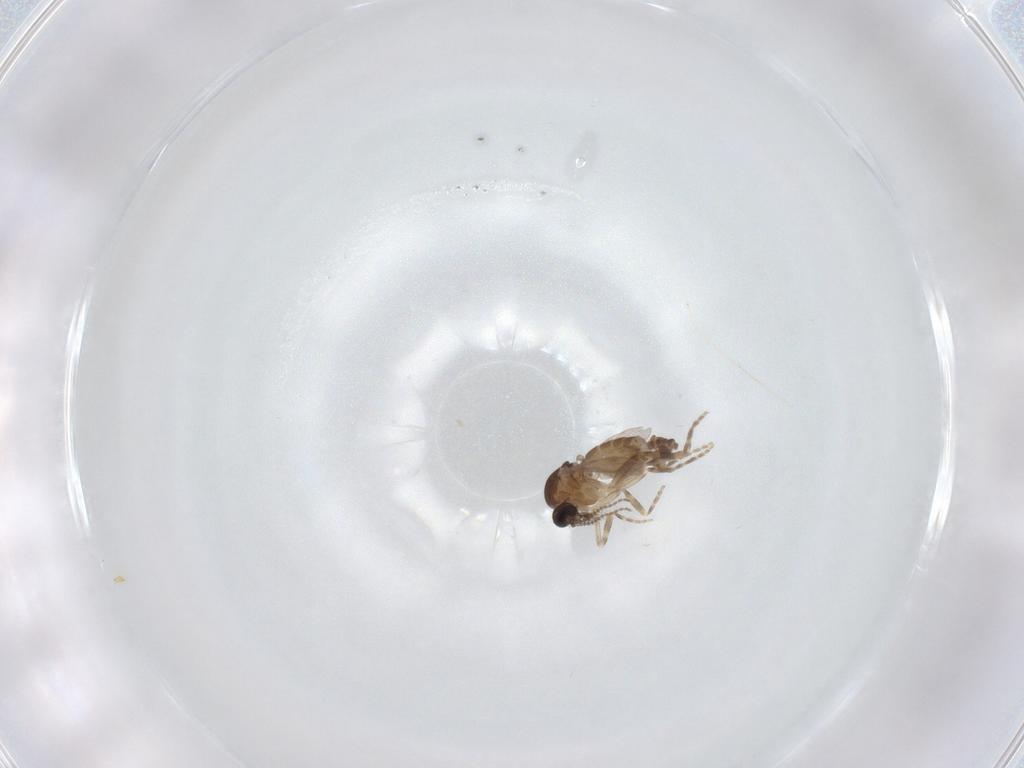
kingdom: Animalia
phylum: Arthropoda
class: Insecta
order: Diptera
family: Ceratopogonidae
